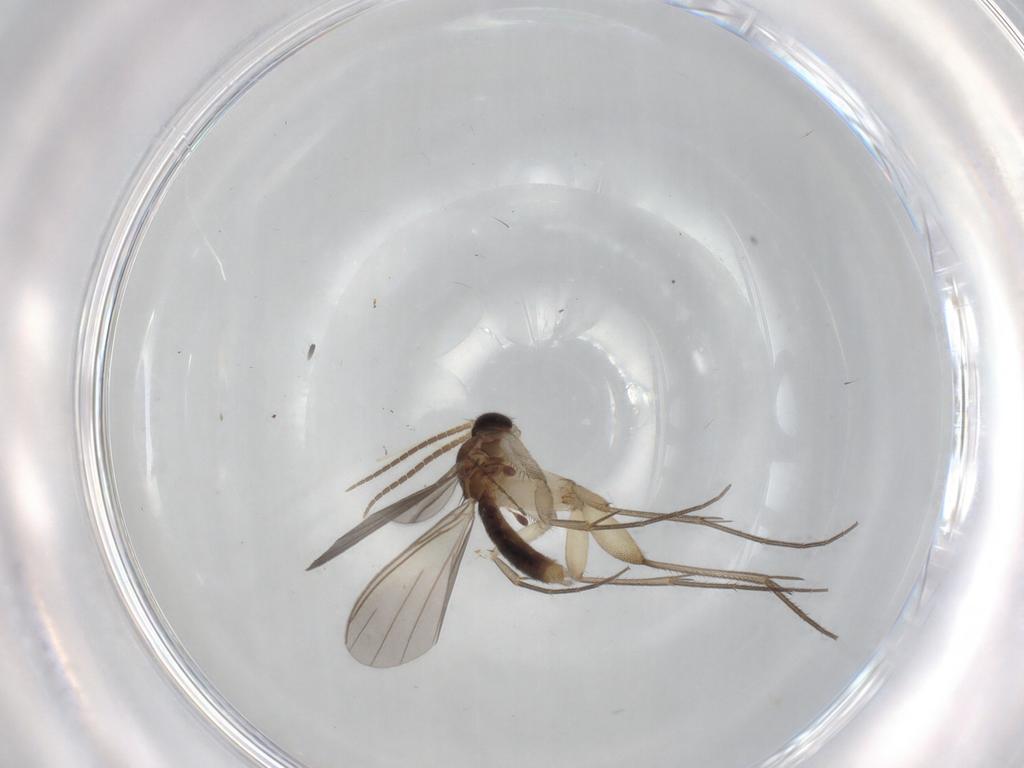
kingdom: Animalia
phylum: Arthropoda
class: Insecta
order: Diptera
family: Mycetophilidae
